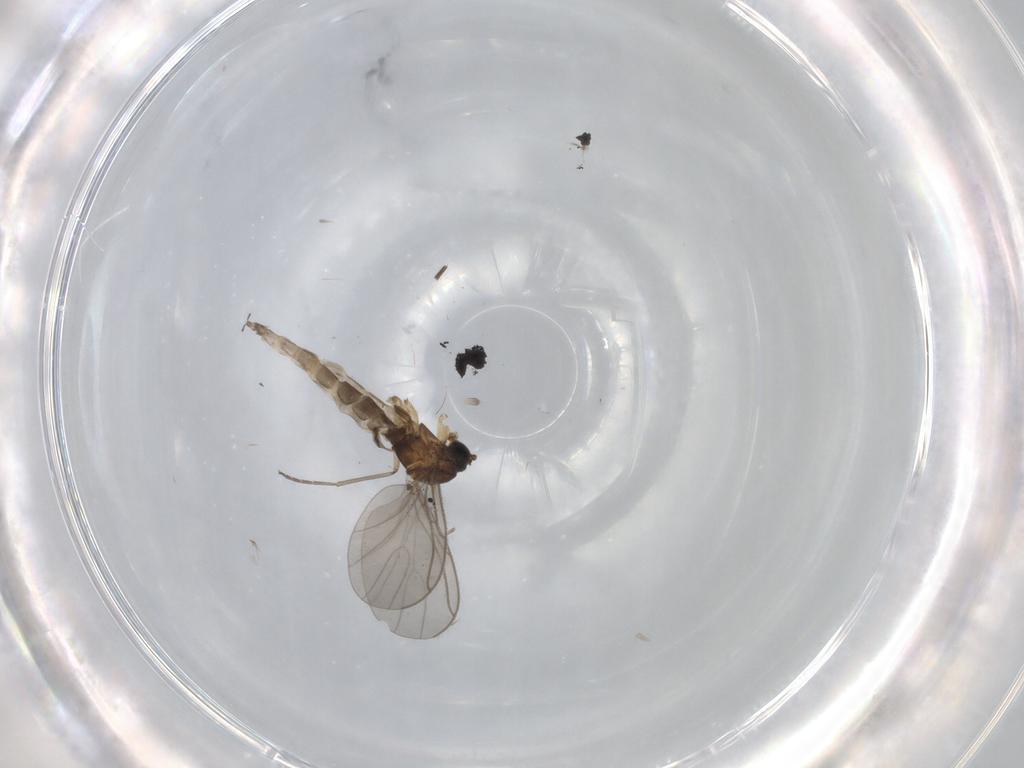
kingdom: Animalia
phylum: Arthropoda
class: Insecta
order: Diptera
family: Sciaridae
